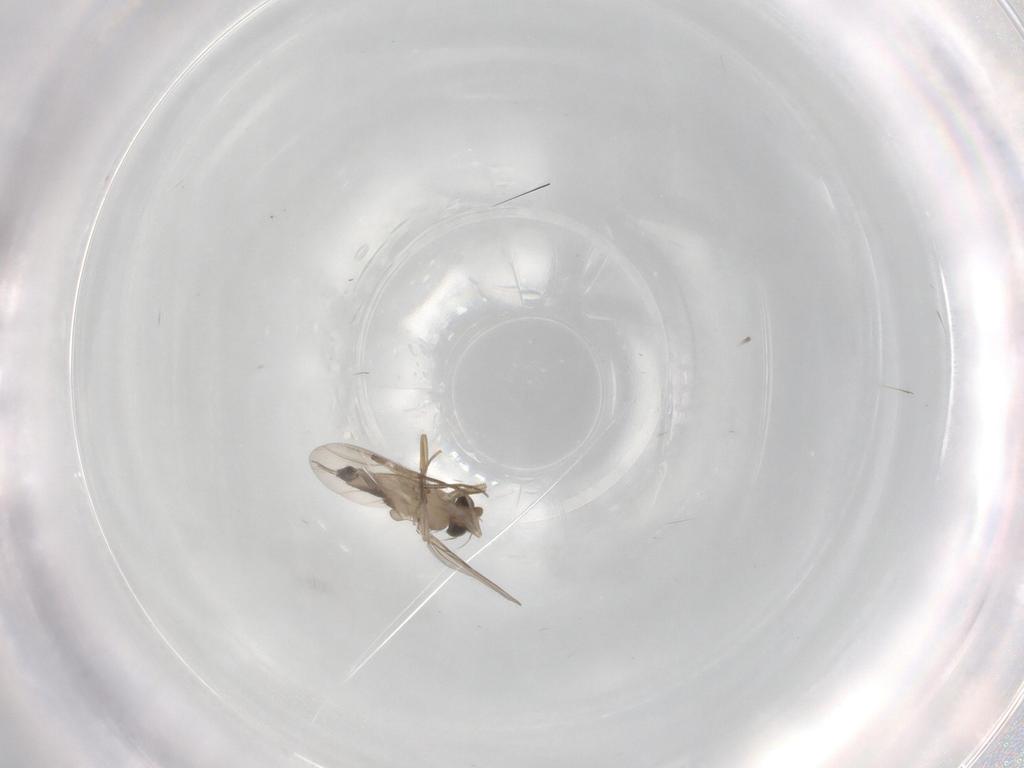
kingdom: Animalia
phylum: Arthropoda
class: Insecta
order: Diptera
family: Phoridae
